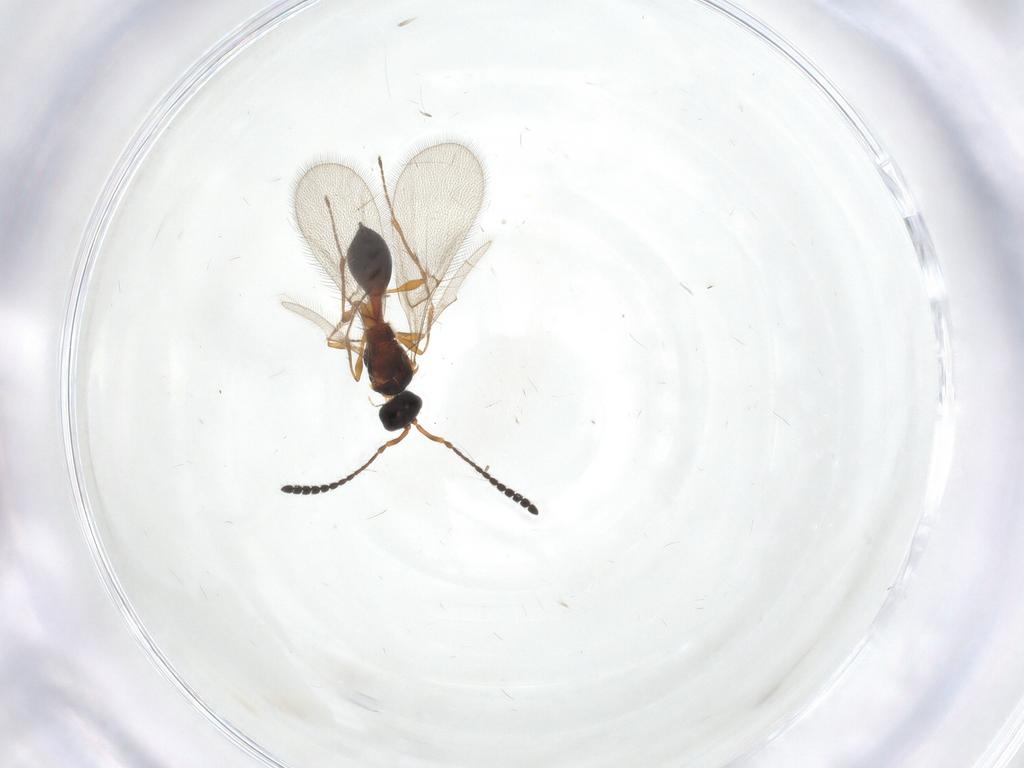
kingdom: Animalia
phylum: Arthropoda
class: Insecta
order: Hymenoptera
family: Diapriidae
